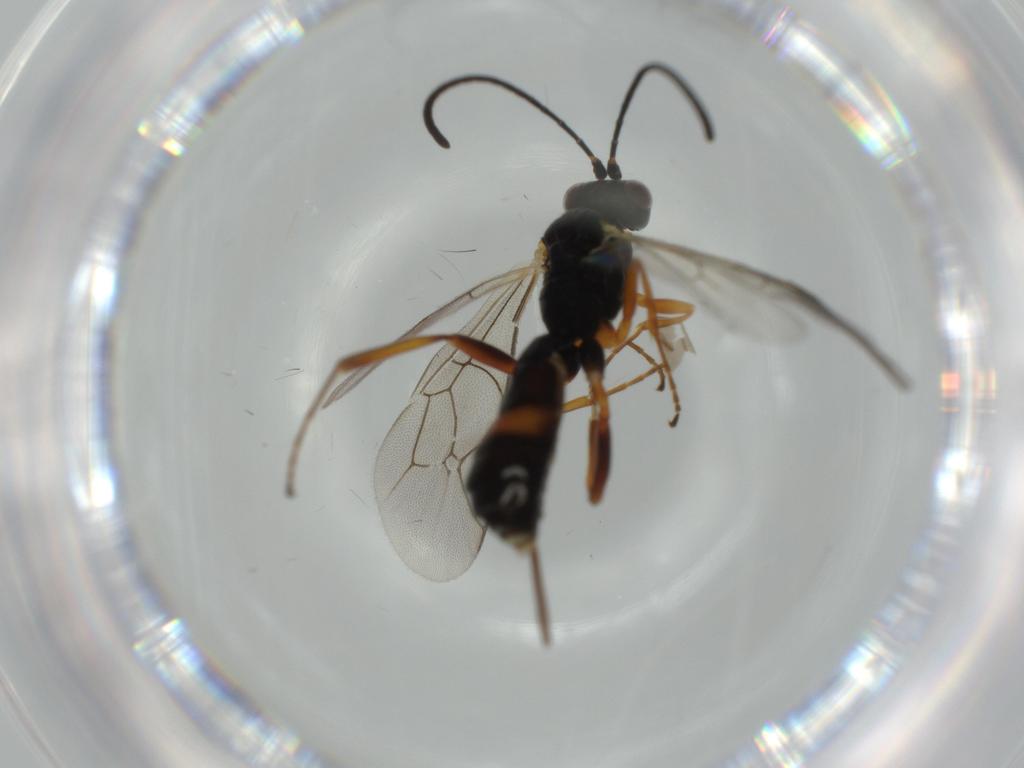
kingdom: Animalia
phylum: Arthropoda
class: Insecta
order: Hymenoptera
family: Ichneumonidae
